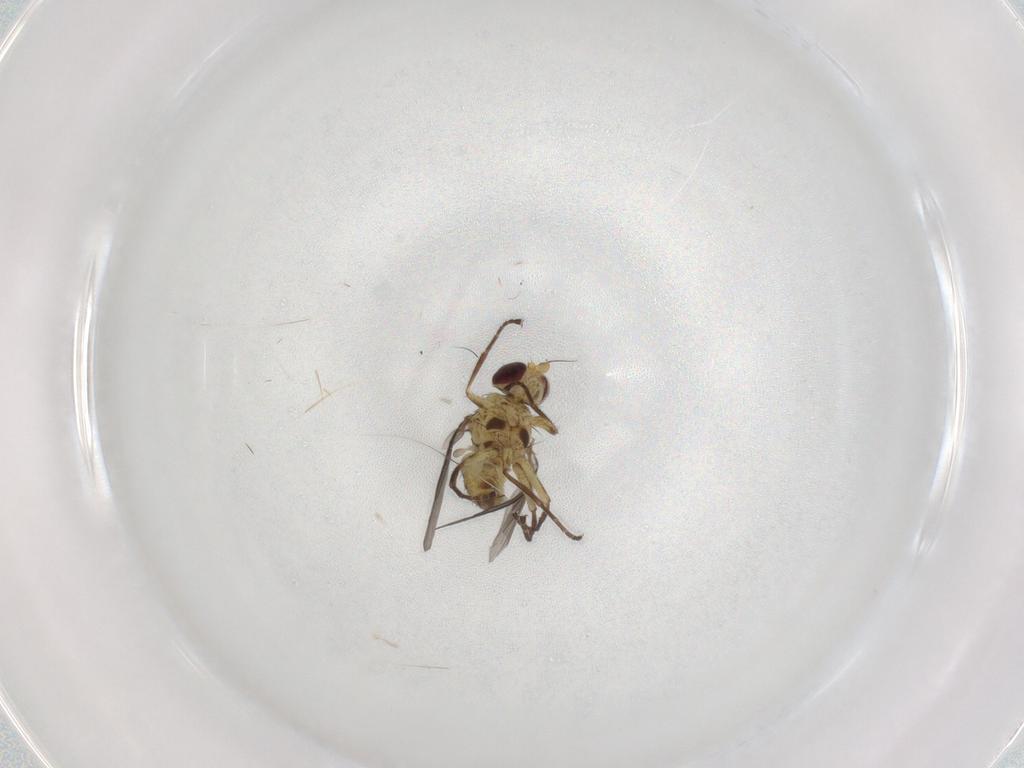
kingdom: Animalia
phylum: Arthropoda
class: Insecta
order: Diptera
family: Agromyzidae
